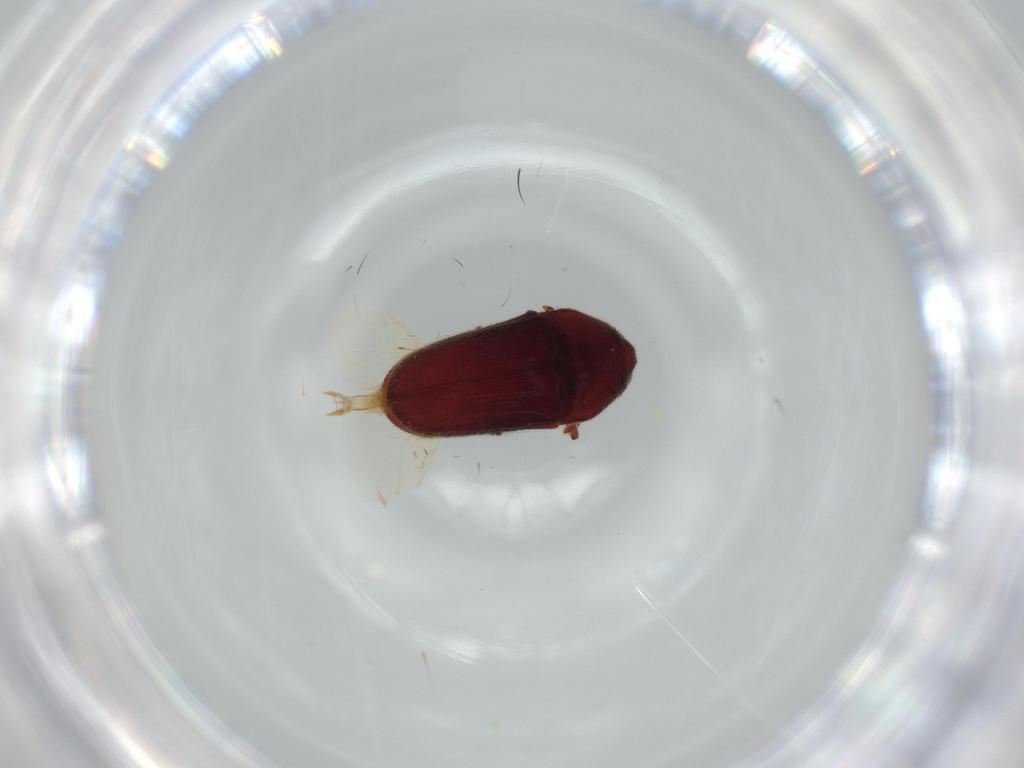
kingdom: Animalia
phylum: Arthropoda
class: Insecta
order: Coleoptera
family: Throscidae
